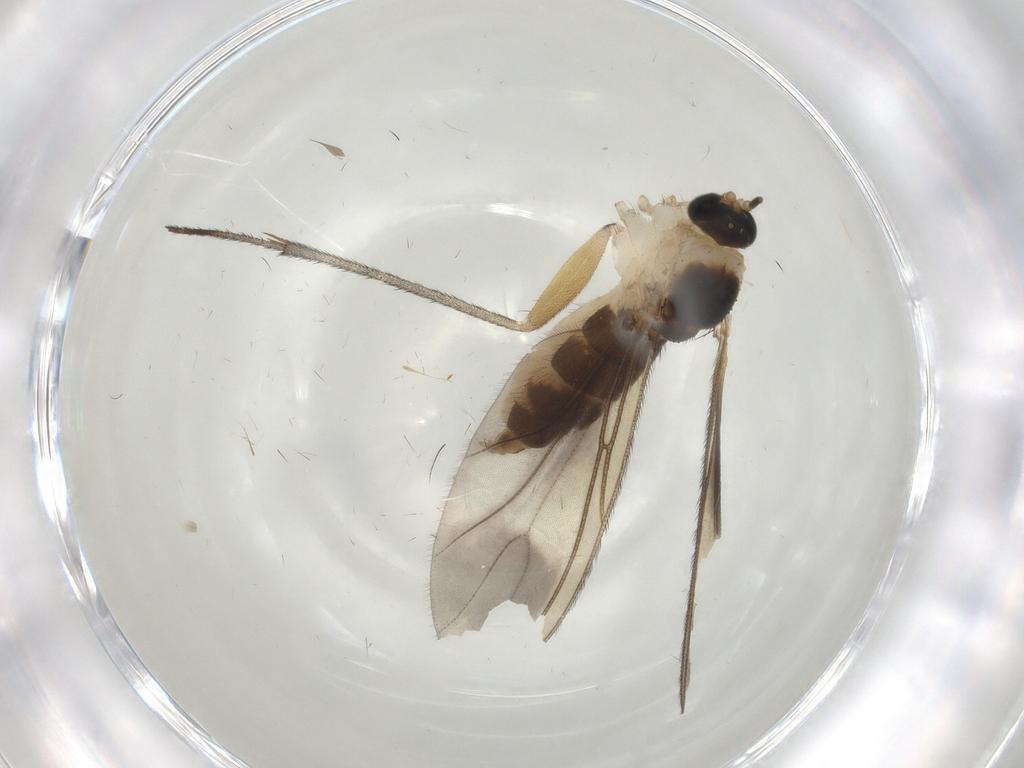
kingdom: Animalia
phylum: Arthropoda
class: Insecta
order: Diptera
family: Sciaridae
